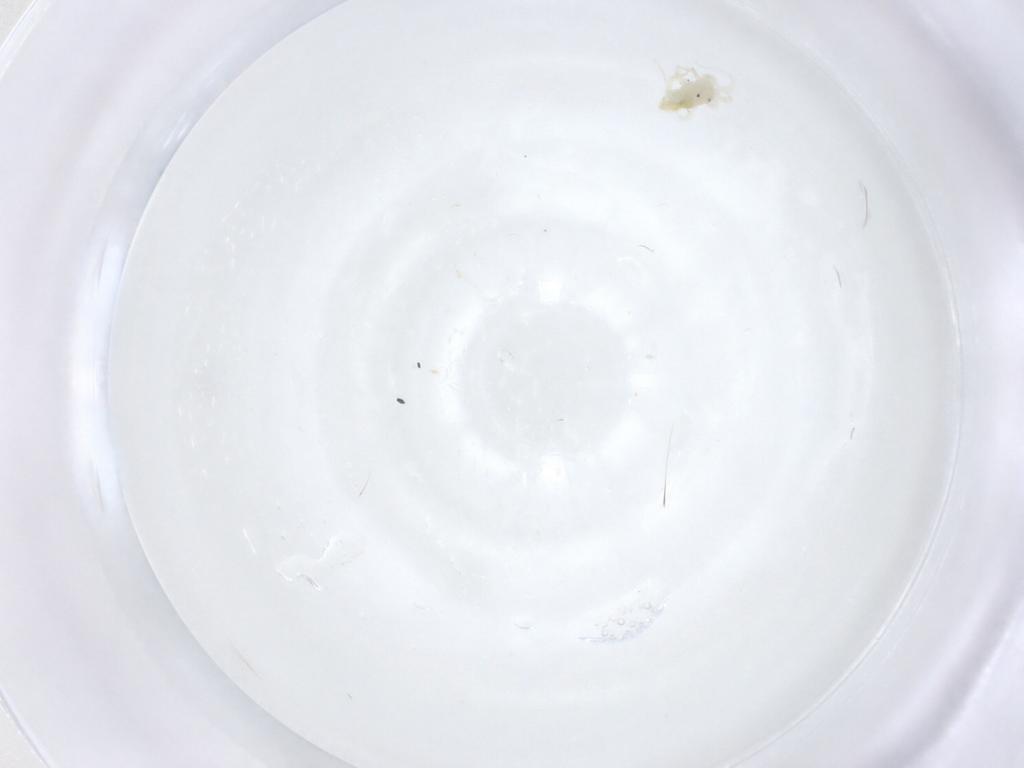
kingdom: Animalia
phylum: Arthropoda
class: Arachnida
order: Trombidiformes
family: Anystidae
